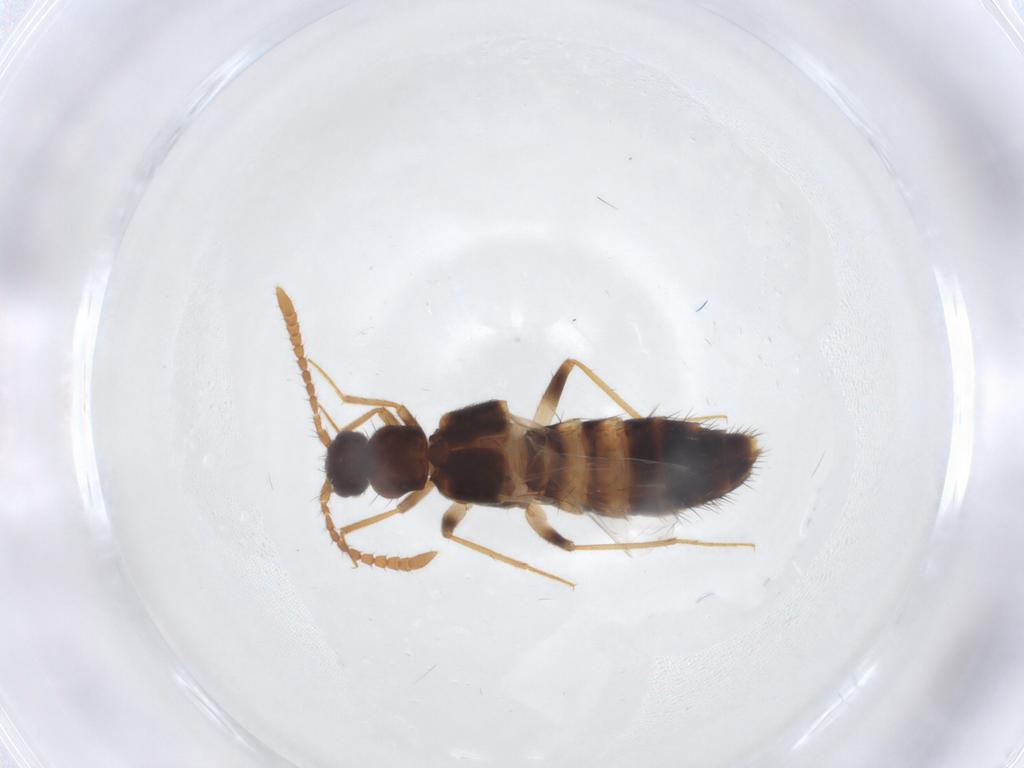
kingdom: Animalia
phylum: Arthropoda
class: Insecta
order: Coleoptera
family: Staphylinidae
